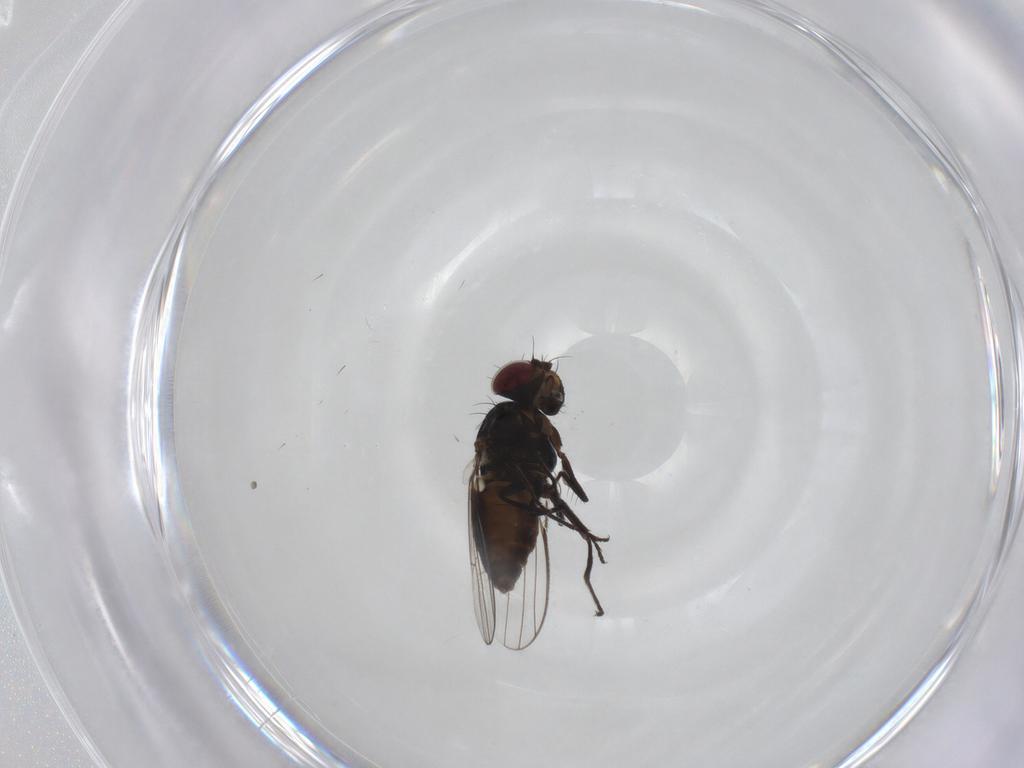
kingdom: Animalia
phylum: Arthropoda
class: Insecta
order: Diptera
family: Carnidae
